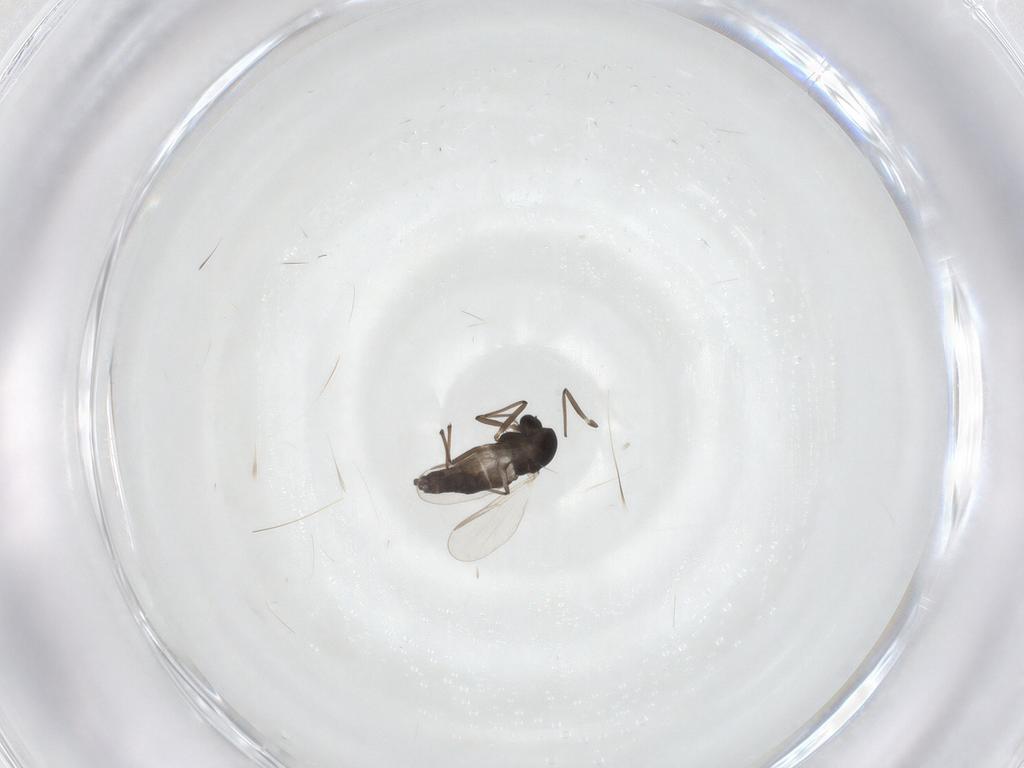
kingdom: Animalia
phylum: Arthropoda
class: Insecta
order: Diptera
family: Chironomidae
